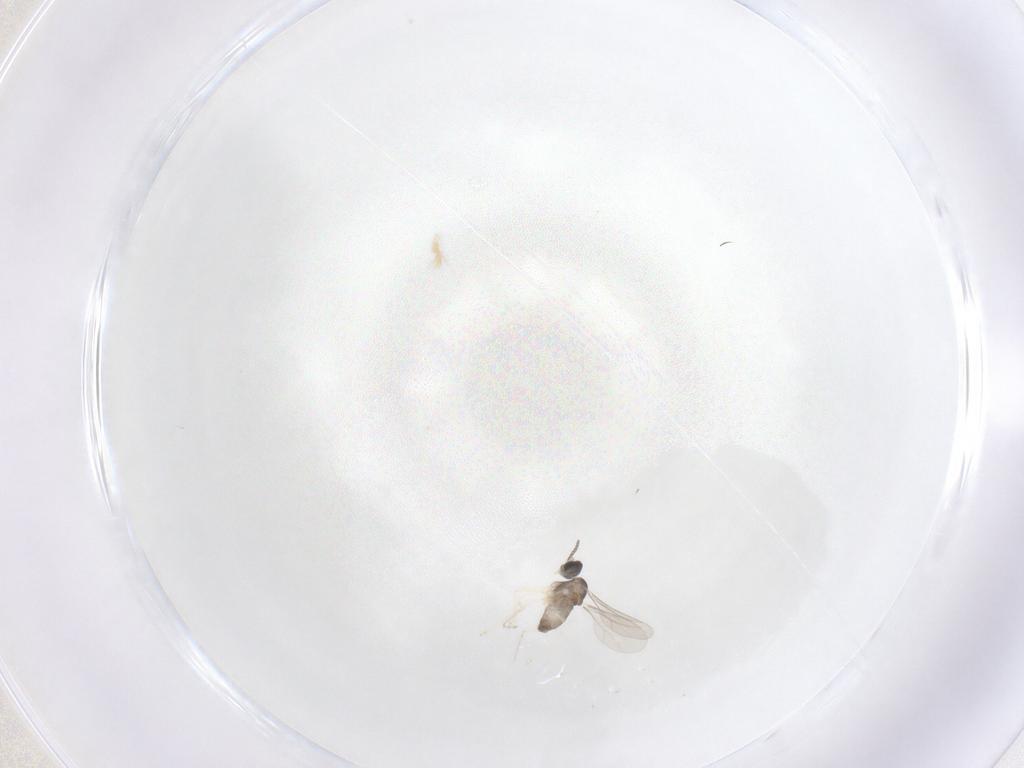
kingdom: Animalia
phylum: Arthropoda
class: Insecta
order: Diptera
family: Cecidomyiidae
